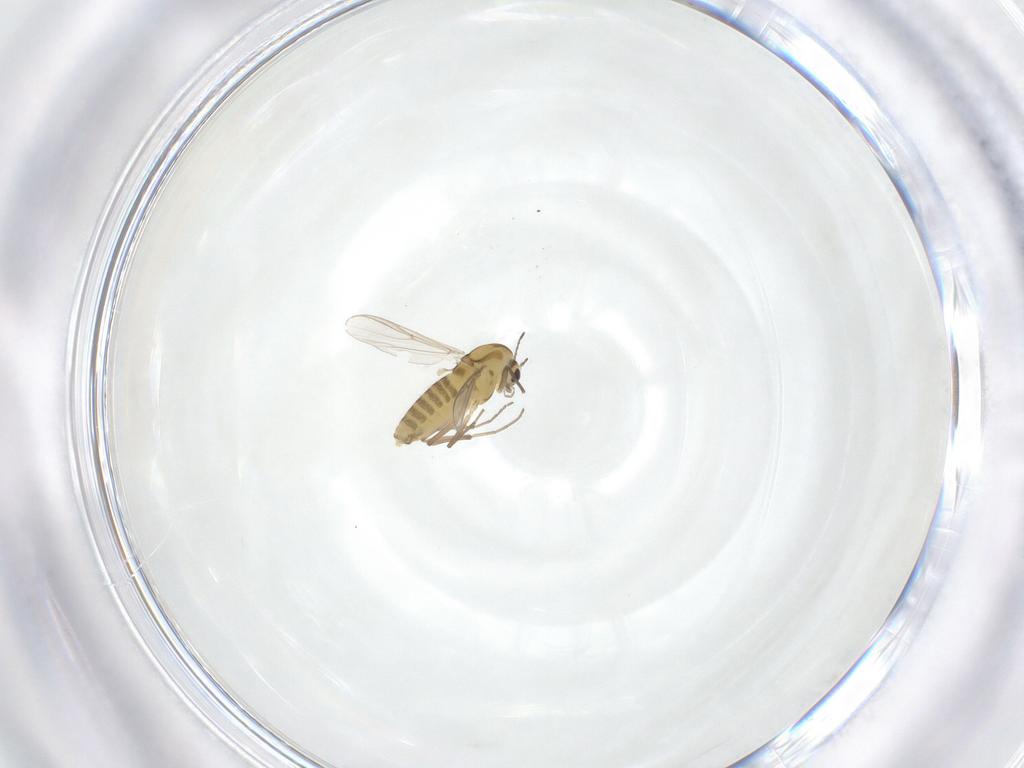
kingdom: Animalia
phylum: Arthropoda
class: Insecta
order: Diptera
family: Chironomidae
